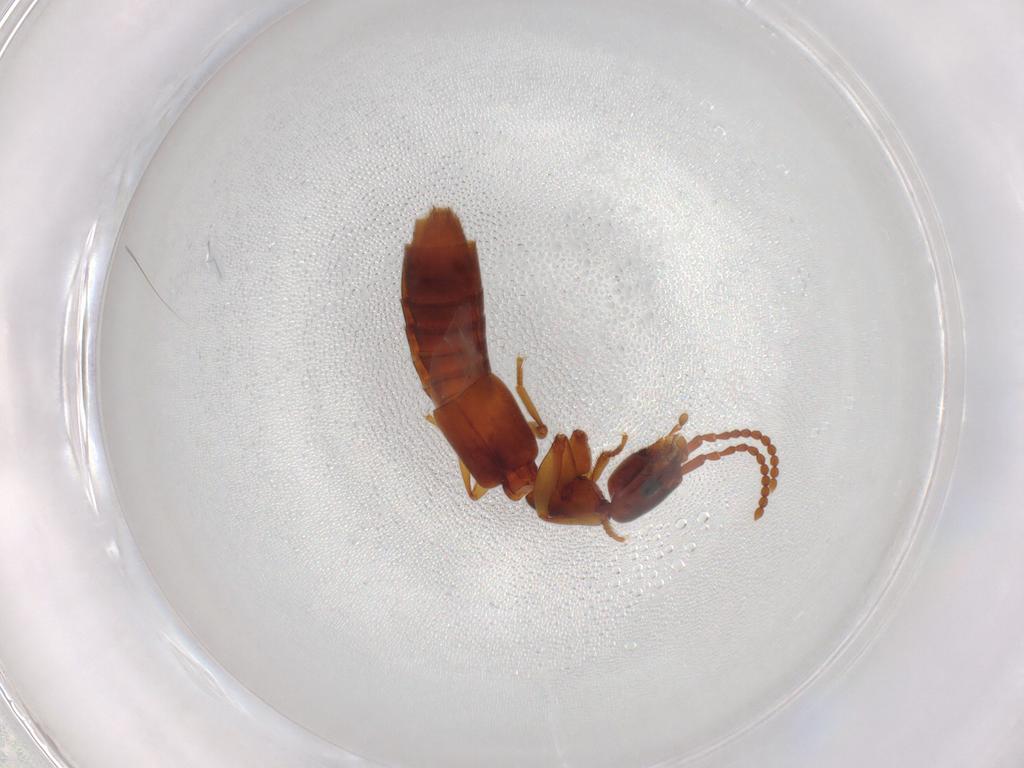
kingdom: Animalia
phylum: Arthropoda
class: Insecta
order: Coleoptera
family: Staphylinidae
